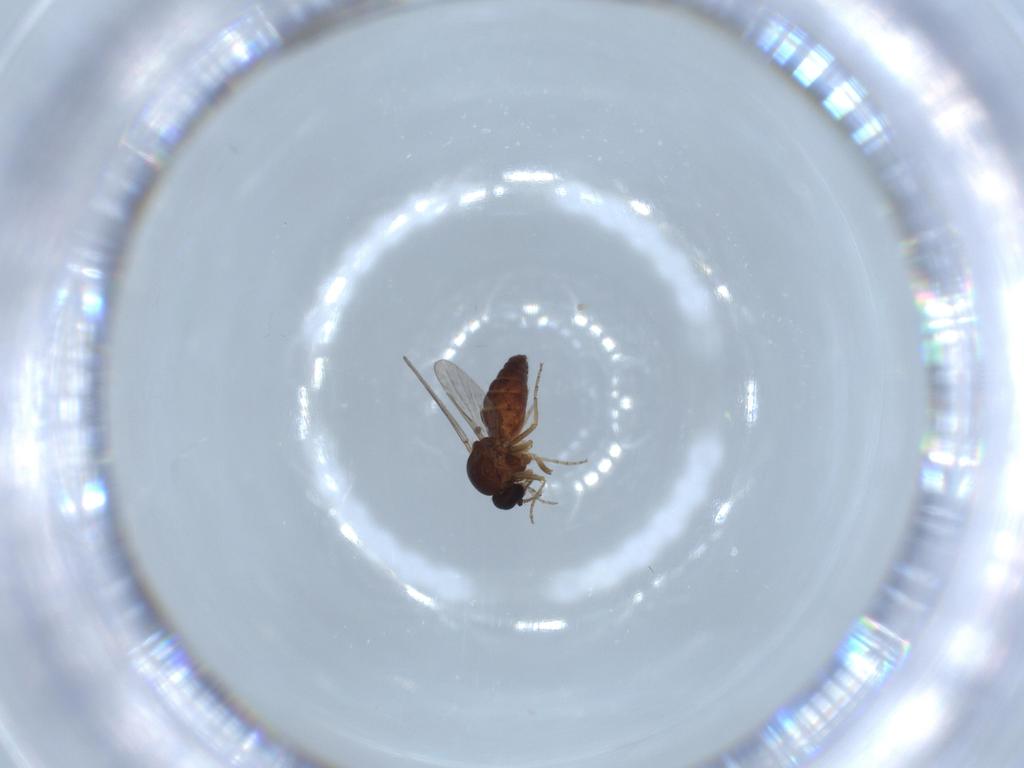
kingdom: Animalia
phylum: Arthropoda
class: Insecta
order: Diptera
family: Ceratopogonidae
